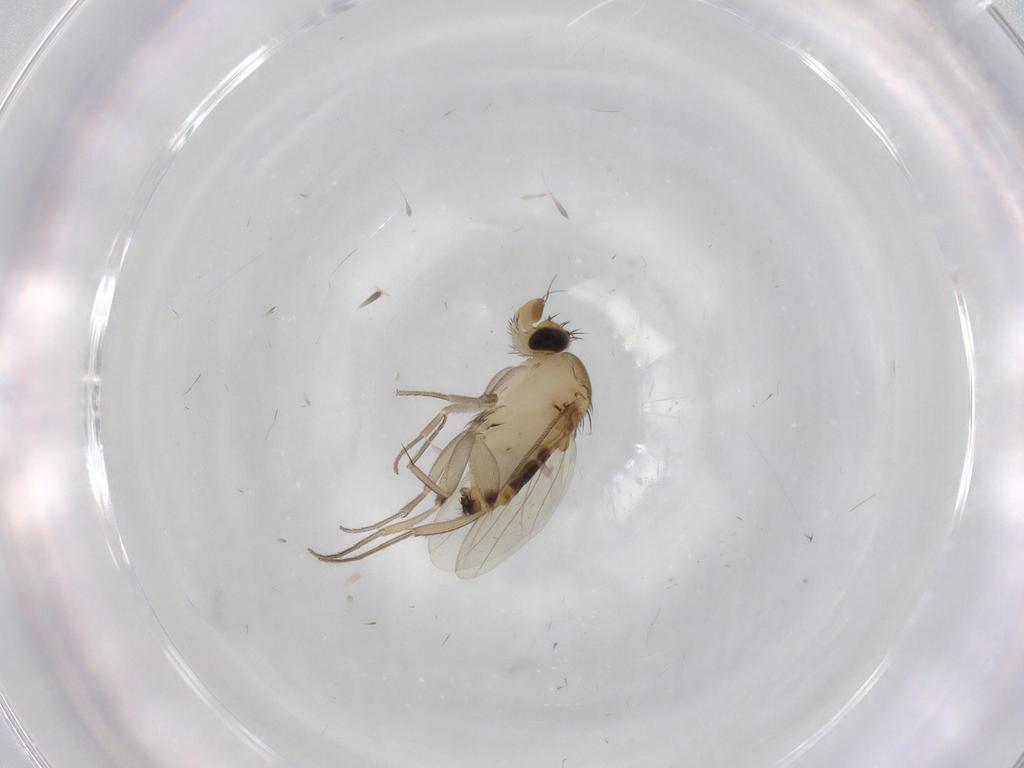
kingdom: Animalia
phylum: Arthropoda
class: Insecta
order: Diptera
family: Phoridae
